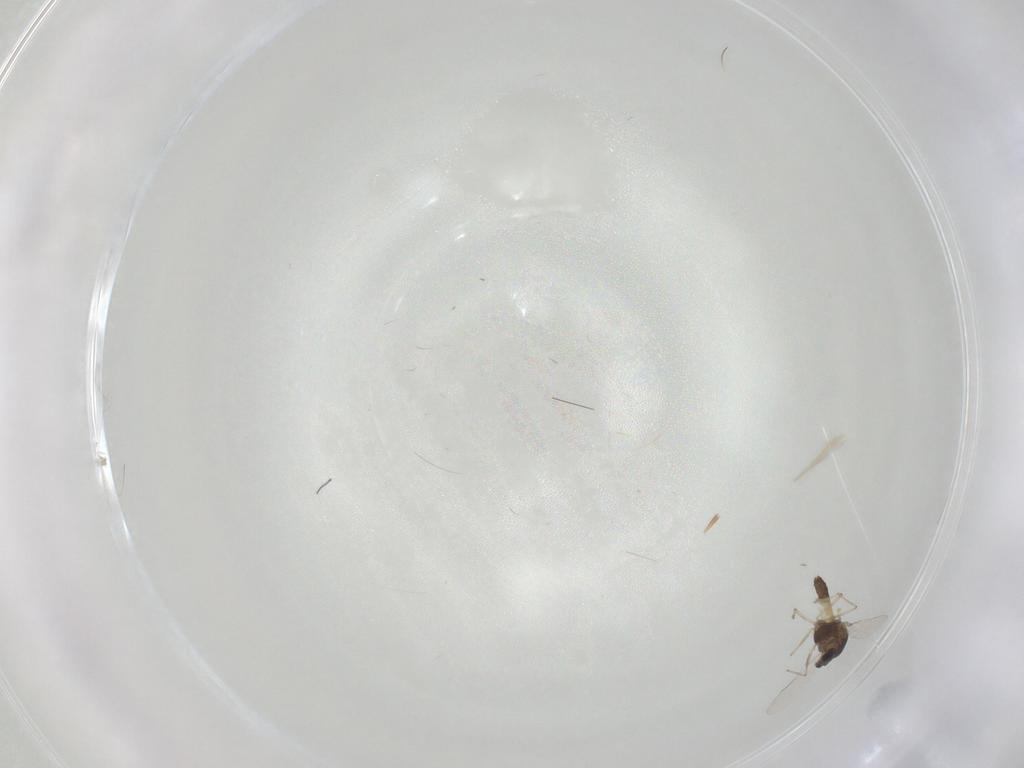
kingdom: Animalia
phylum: Arthropoda
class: Insecta
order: Diptera
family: Chironomidae
